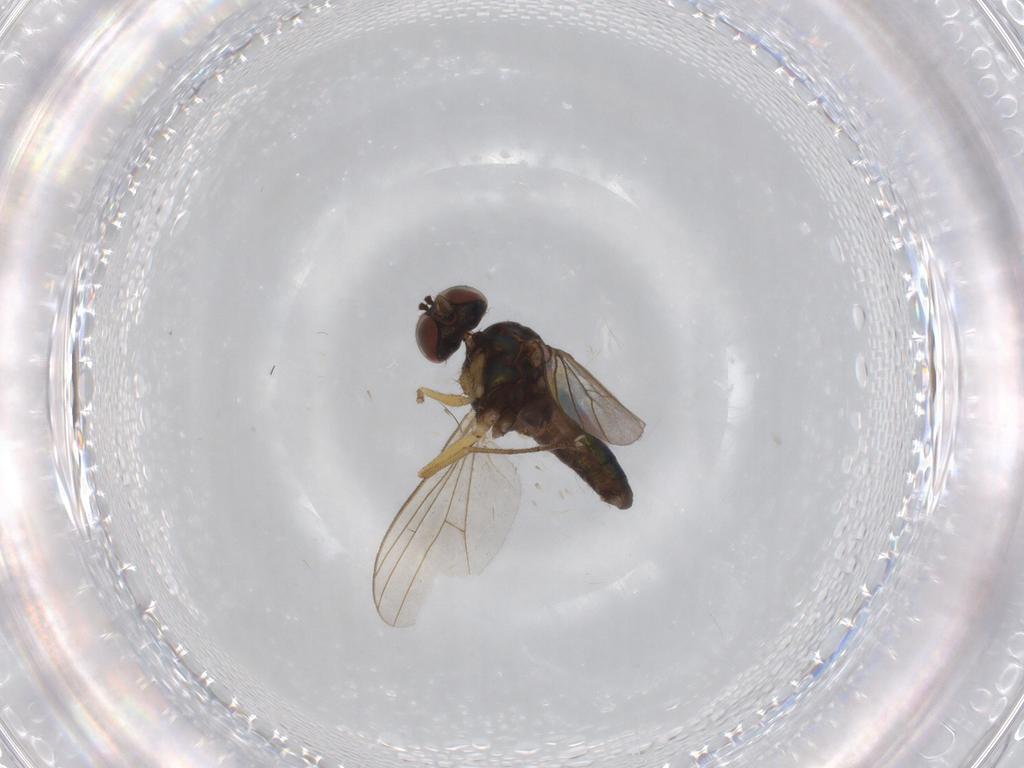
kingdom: Animalia
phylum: Arthropoda
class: Insecta
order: Diptera
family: Dolichopodidae
